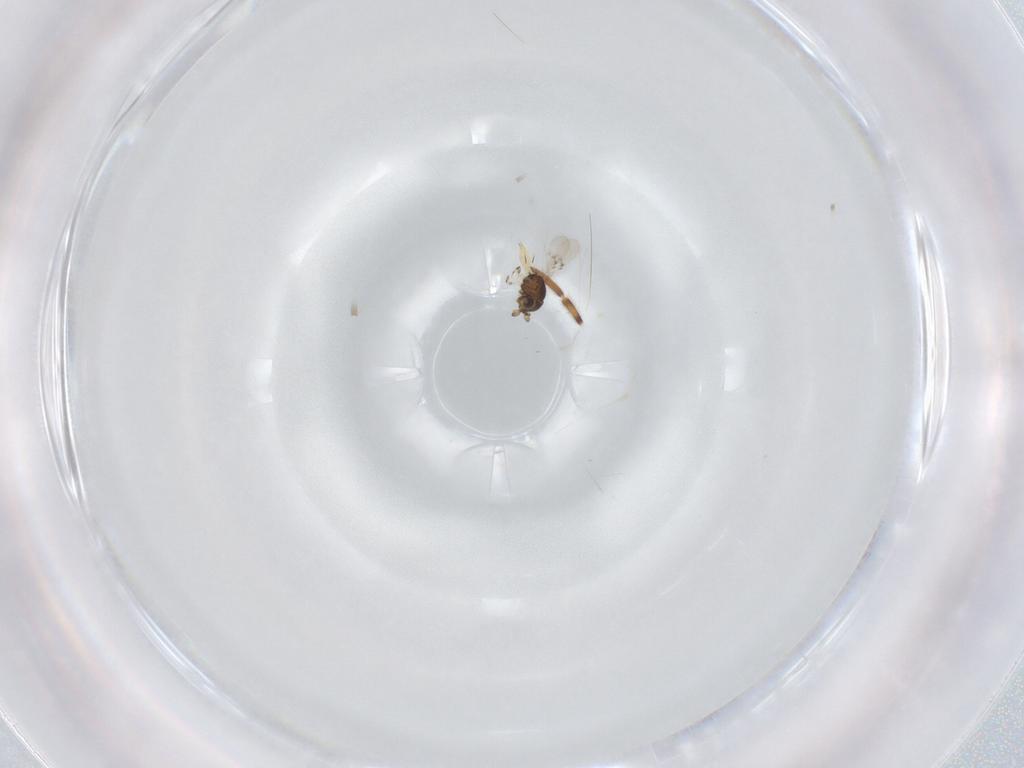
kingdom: Animalia
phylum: Arthropoda
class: Insecta
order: Hymenoptera
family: Scelionidae
